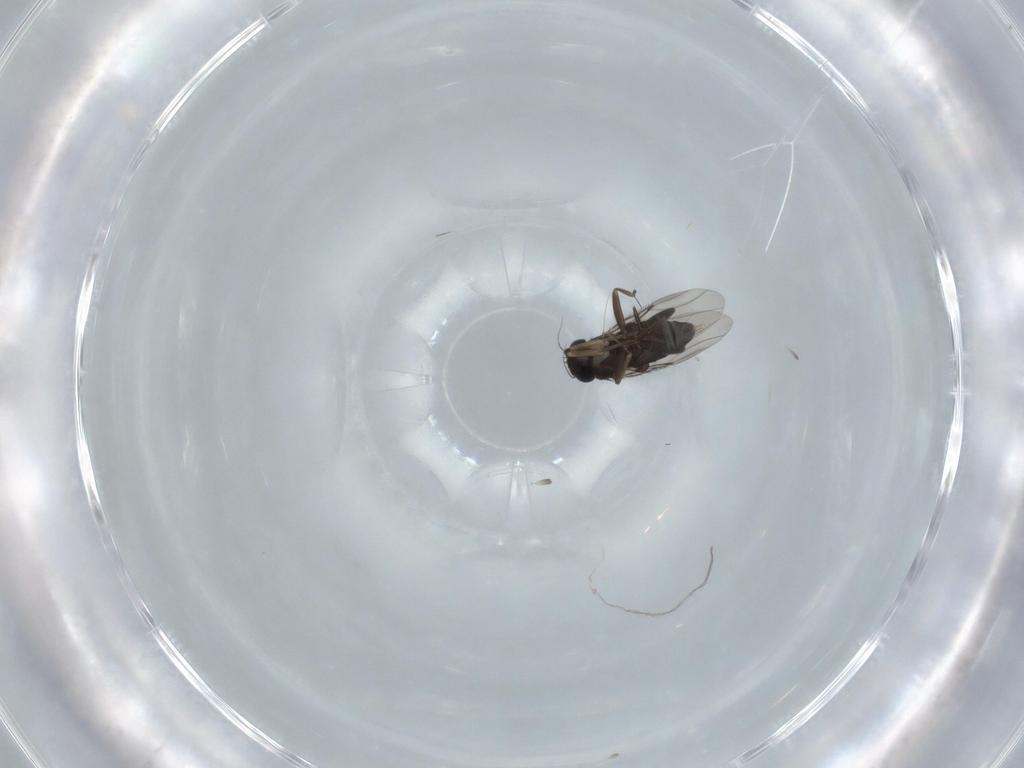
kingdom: Animalia
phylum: Arthropoda
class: Insecta
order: Diptera
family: Phoridae
